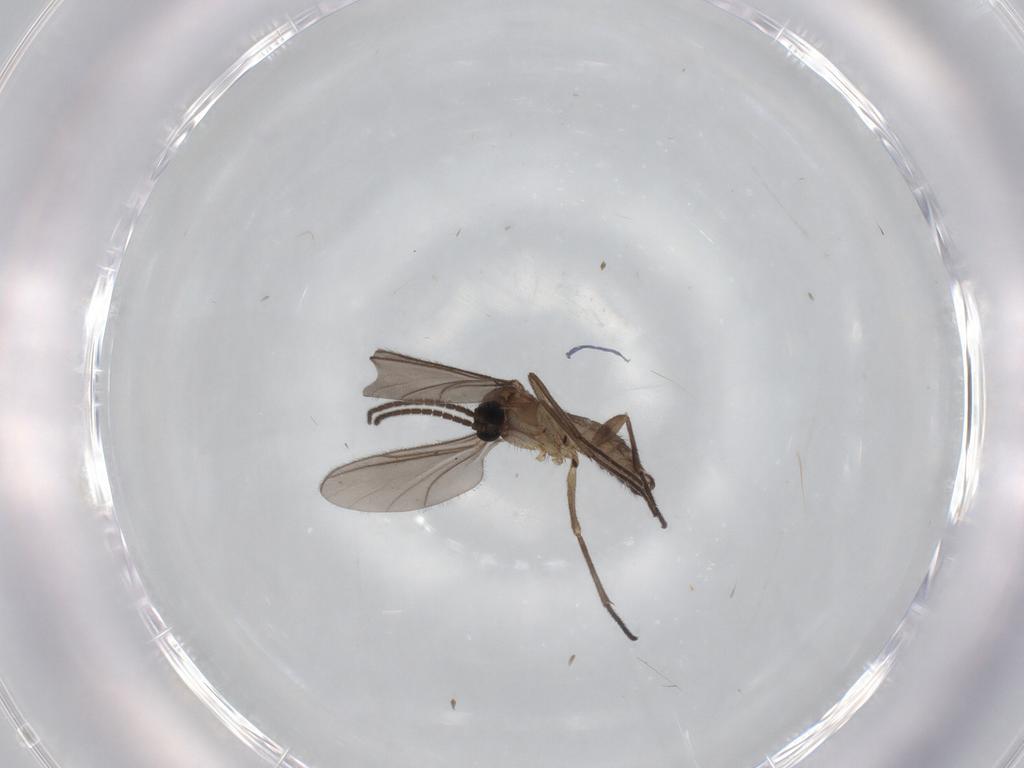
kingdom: Animalia
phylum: Arthropoda
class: Insecta
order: Diptera
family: Sciaridae
